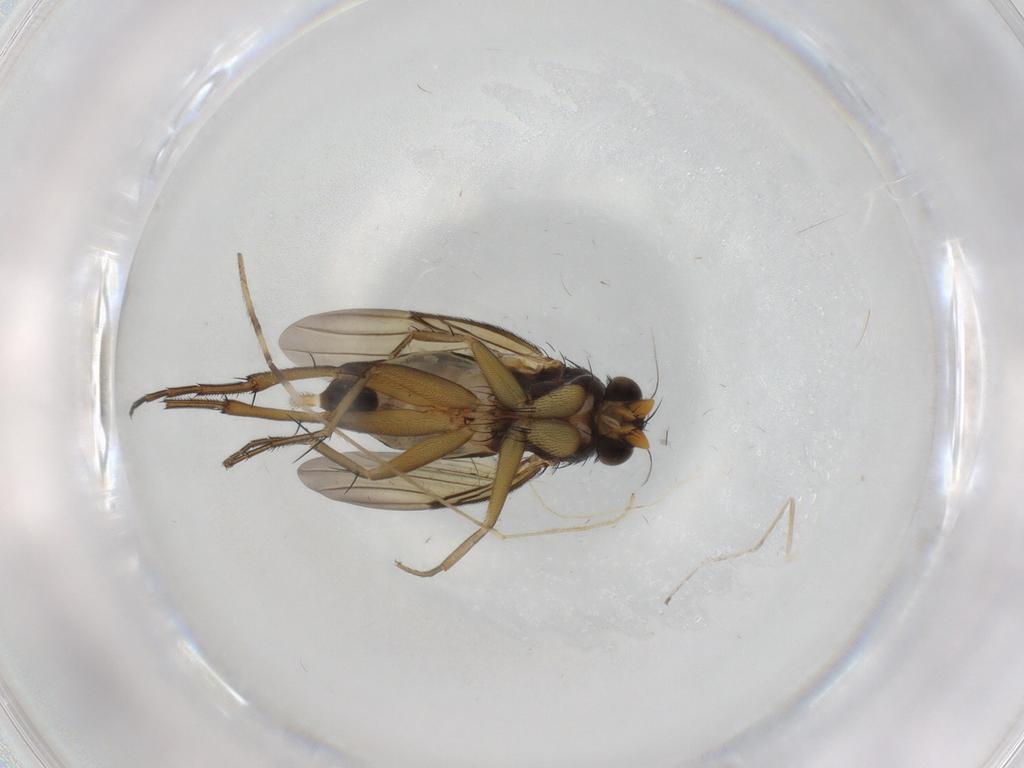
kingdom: Animalia
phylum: Arthropoda
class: Insecta
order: Diptera
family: Phoridae
